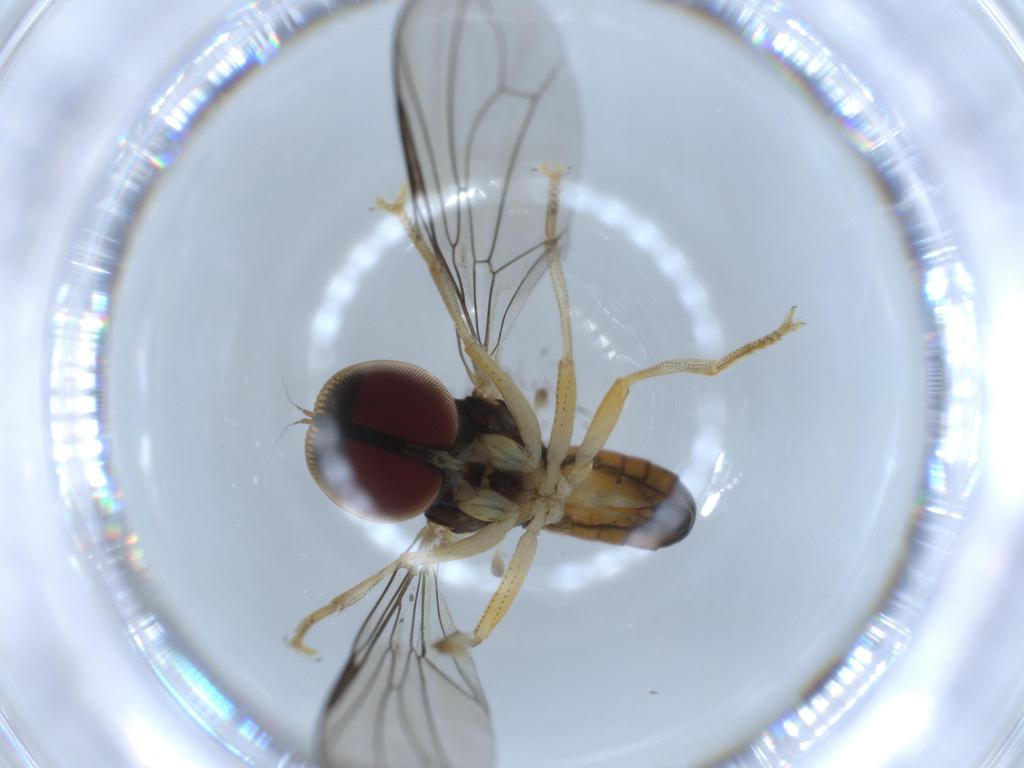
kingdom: Animalia
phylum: Arthropoda
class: Insecta
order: Diptera
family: Pipunculidae
